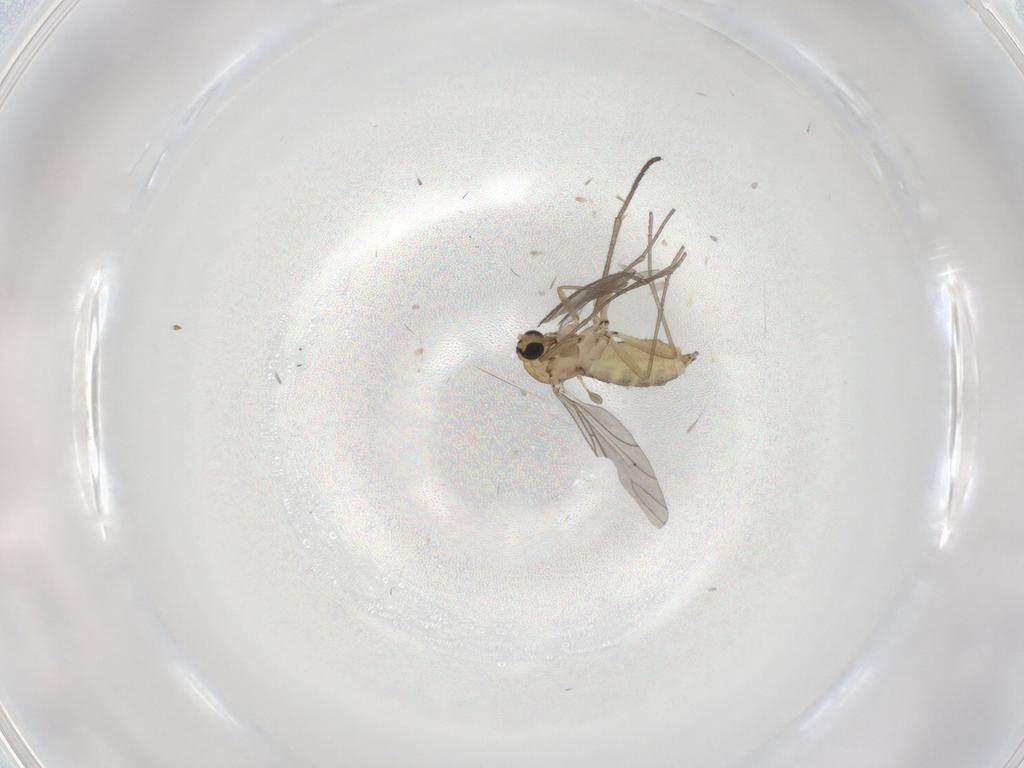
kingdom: Animalia
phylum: Arthropoda
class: Insecta
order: Diptera
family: Sciaridae
